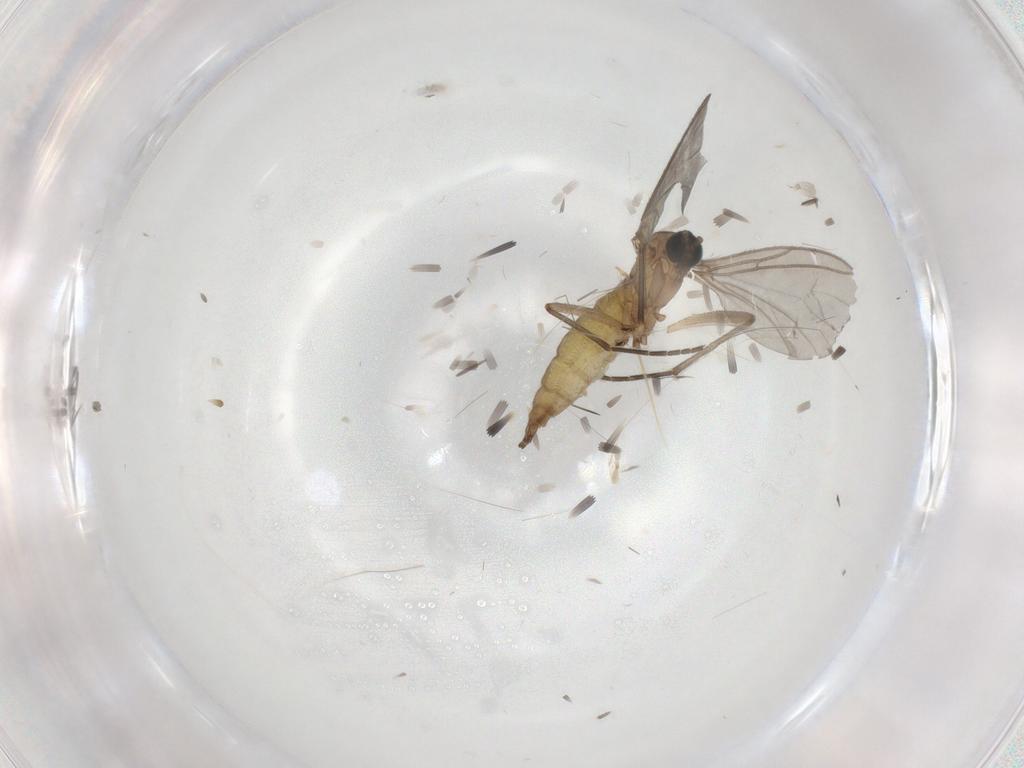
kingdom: Animalia
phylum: Arthropoda
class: Insecta
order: Diptera
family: Sciaridae
